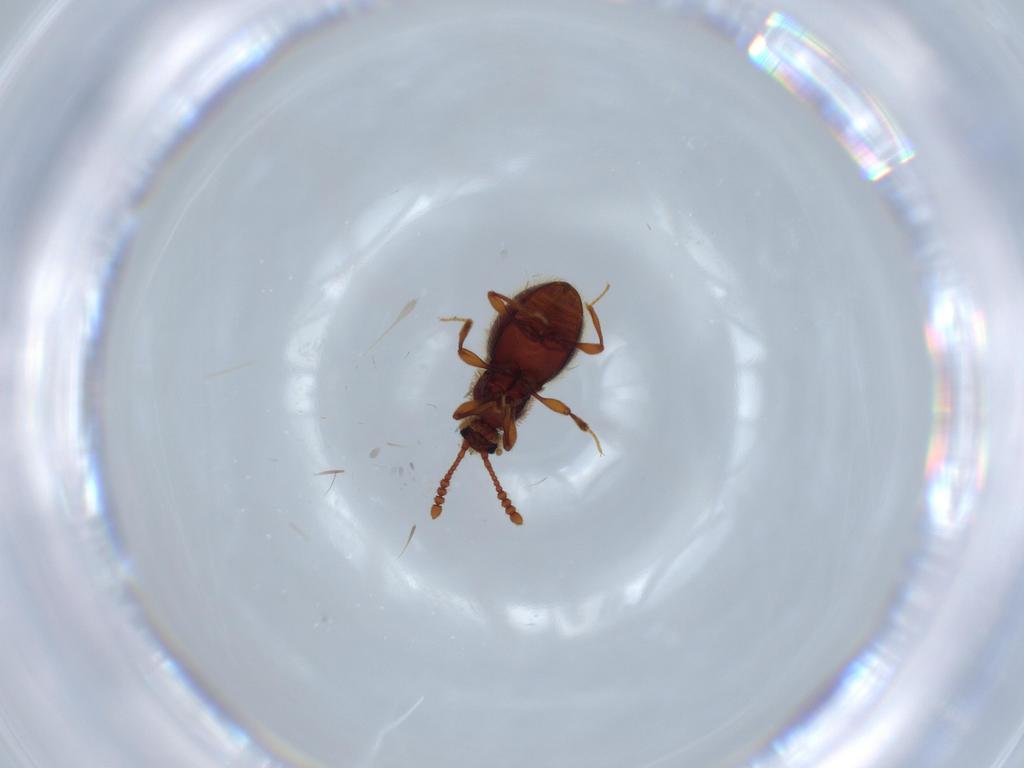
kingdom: Animalia
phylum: Arthropoda
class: Insecta
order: Coleoptera
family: Staphylinidae
